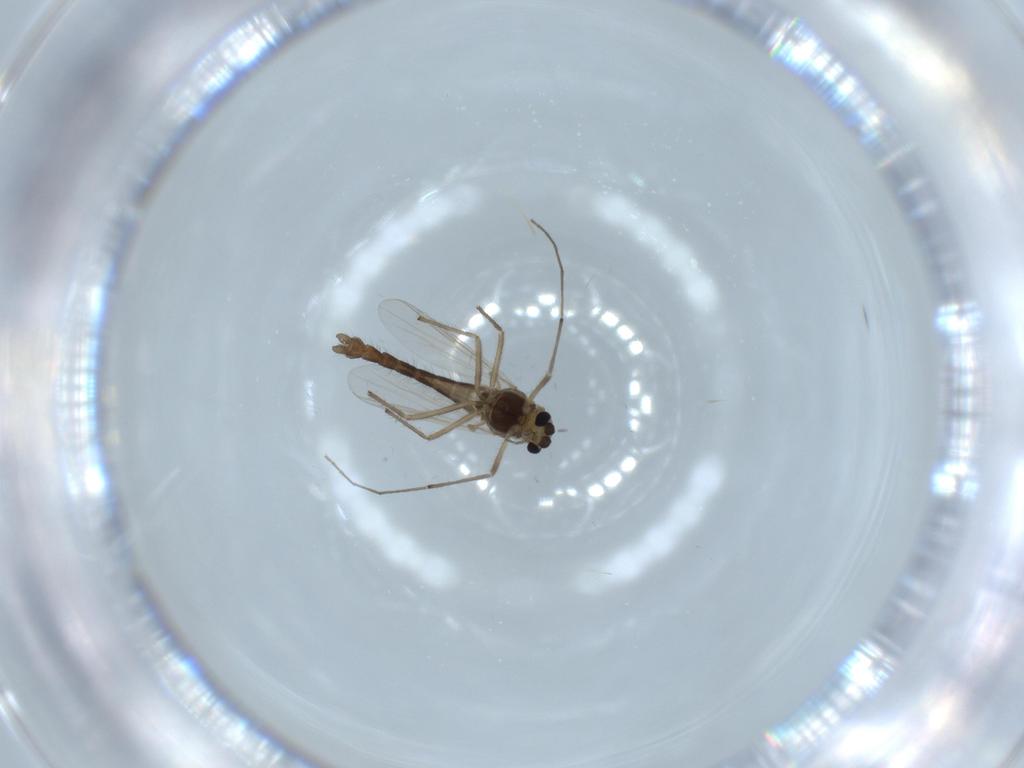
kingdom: Animalia
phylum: Arthropoda
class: Insecta
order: Diptera
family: Chironomidae
